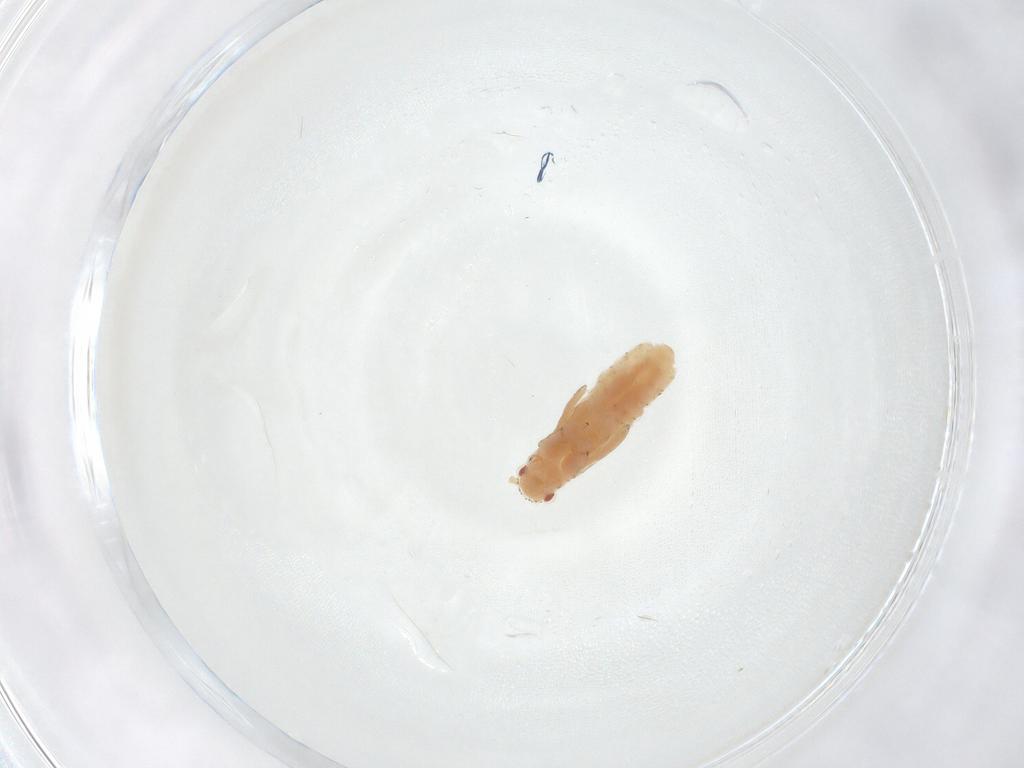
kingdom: Animalia
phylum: Arthropoda
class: Insecta
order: Hemiptera
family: Aphididae
